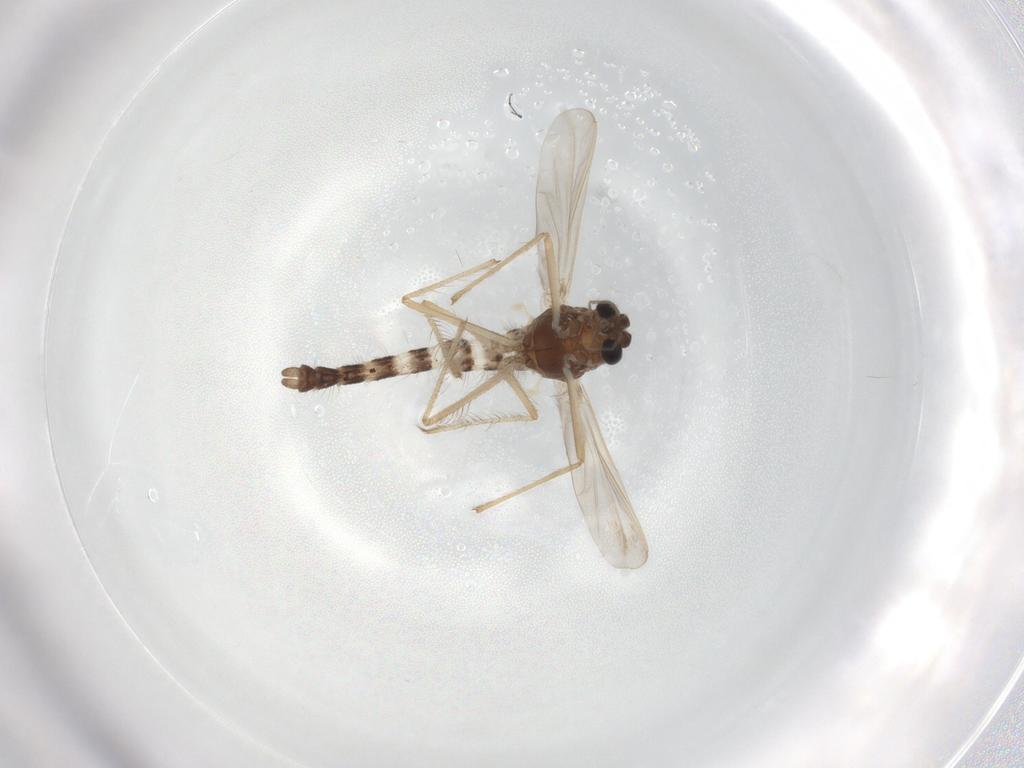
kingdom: Animalia
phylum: Arthropoda
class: Insecta
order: Diptera
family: Chironomidae
